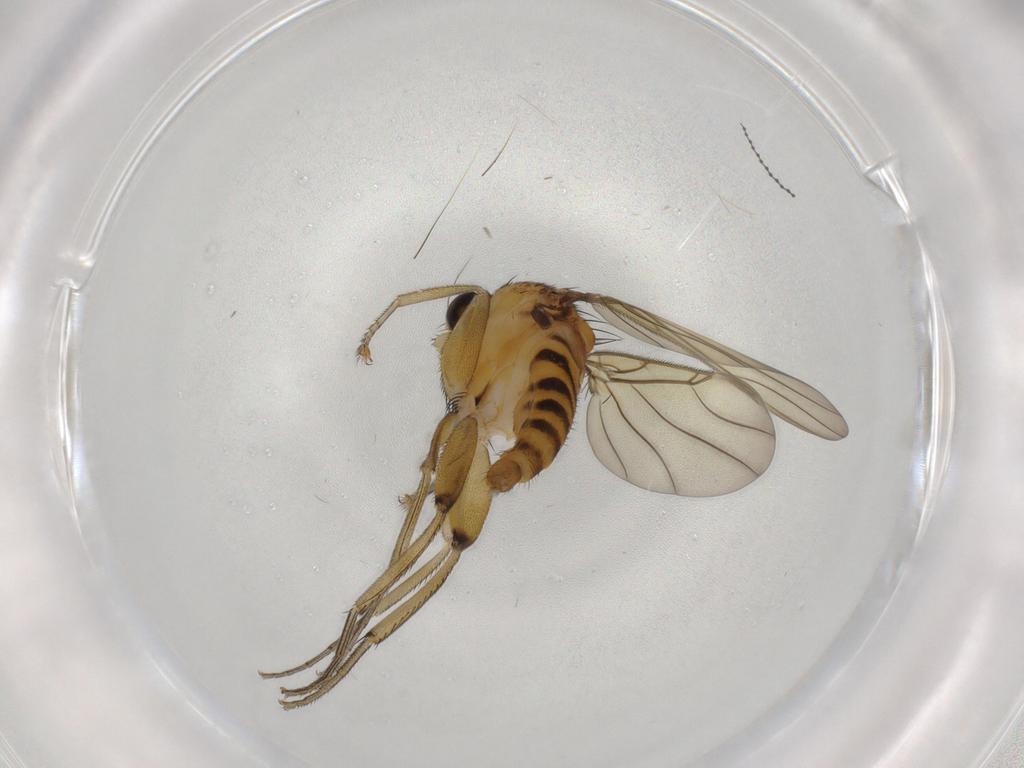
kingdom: Animalia
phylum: Arthropoda
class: Insecta
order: Diptera
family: Phoridae
